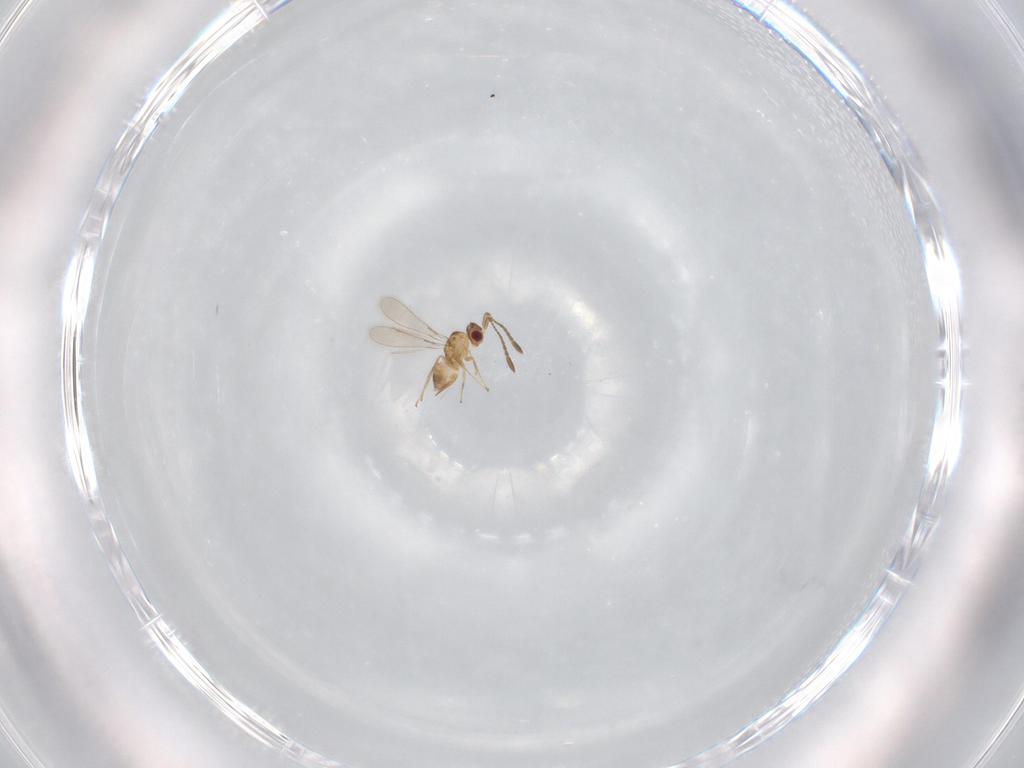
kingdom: Animalia
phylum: Arthropoda
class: Insecta
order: Hymenoptera
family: Mymaridae
